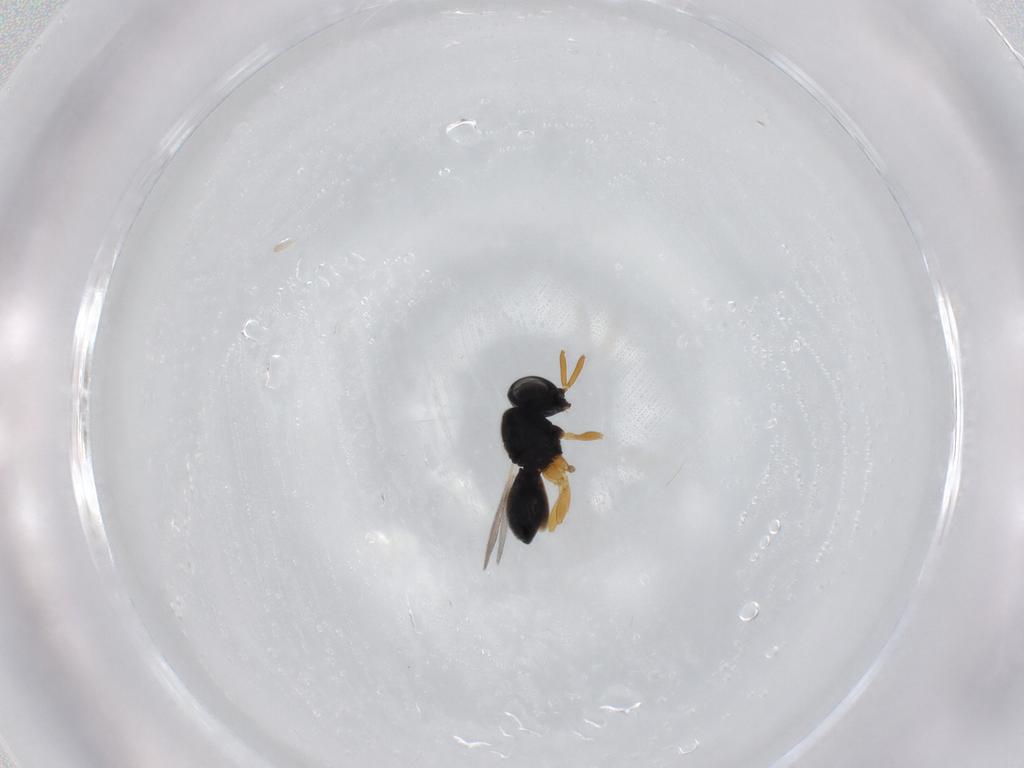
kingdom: Animalia
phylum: Arthropoda
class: Insecta
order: Hymenoptera
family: Scelionidae
